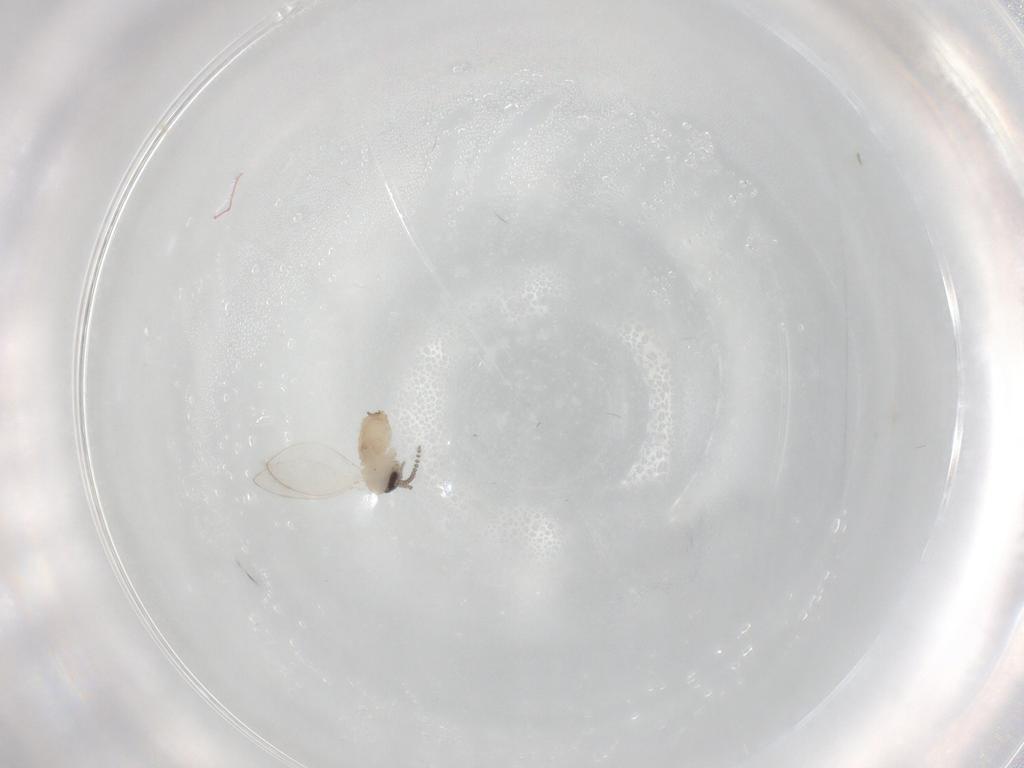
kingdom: Animalia
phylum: Arthropoda
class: Insecta
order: Diptera
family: Psychodidae
